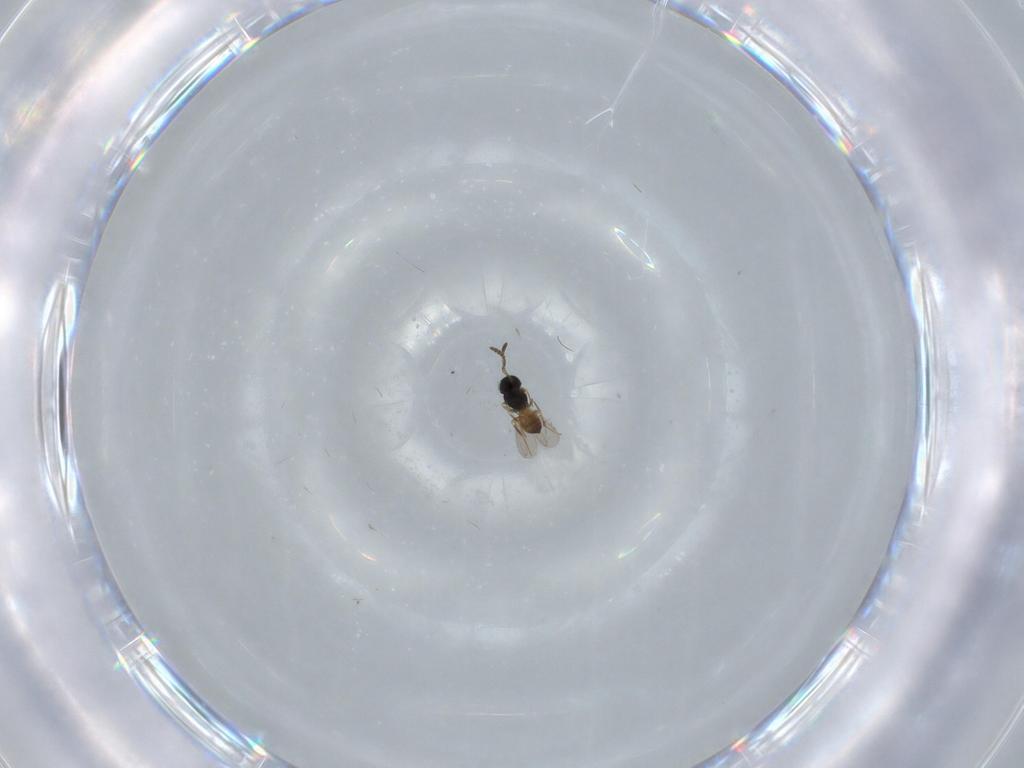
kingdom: Animalia
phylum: Arthropoda
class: Insecta
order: Hymenoptera
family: Scelionidae
